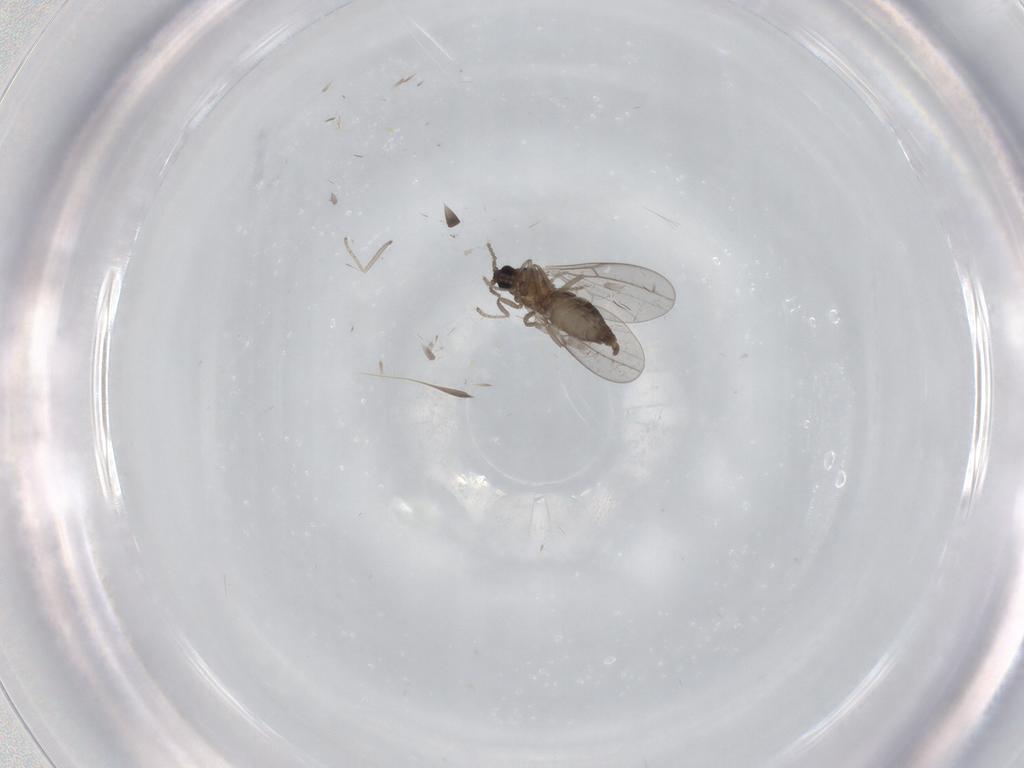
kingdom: Animalia
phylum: Arthropoda
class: Insecta
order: Diptera
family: Cecidomyiidae
